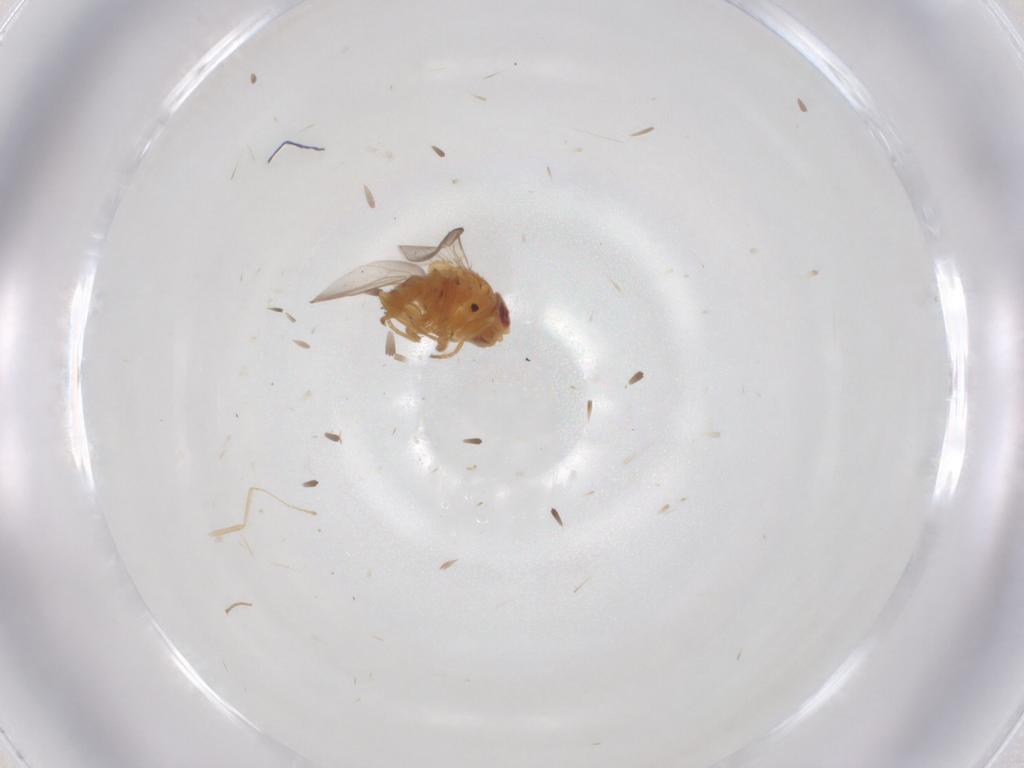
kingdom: Animalia
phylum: Arthropoda
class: Insecta
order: Diptera
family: Chloropidae
